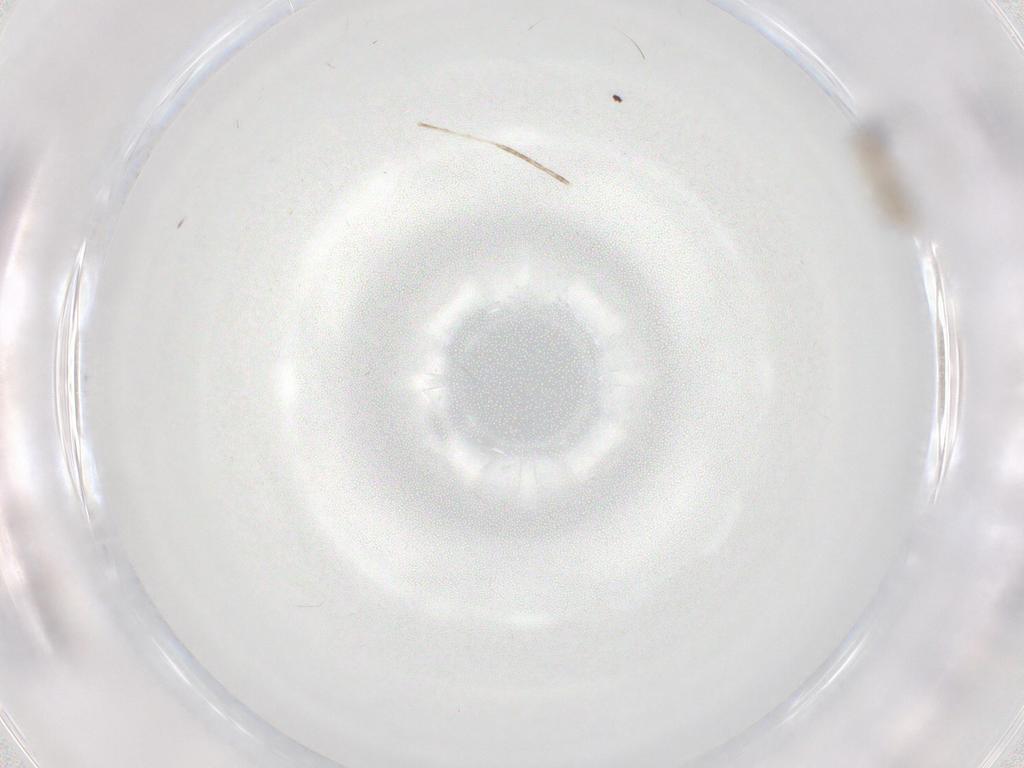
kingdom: Animalia
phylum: Arthropoda
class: Insecta
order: Diptera
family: Cecidomyiidae
